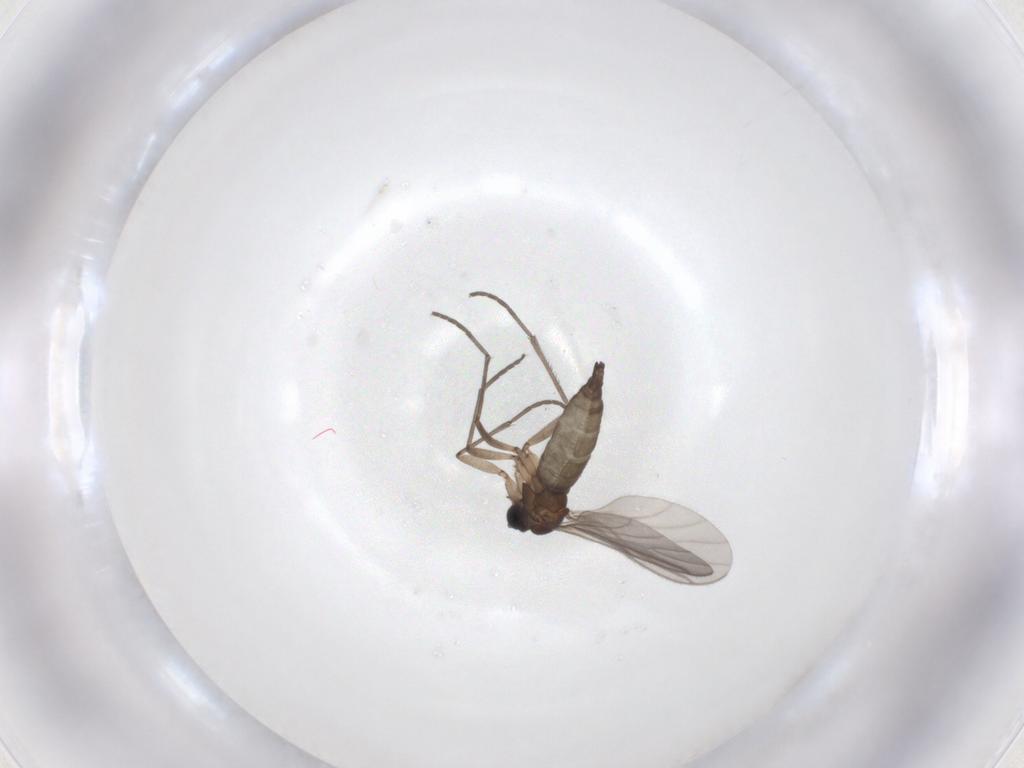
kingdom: Animalia
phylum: Arthropoda
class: Insecta
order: Diptera
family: Sciaridae
